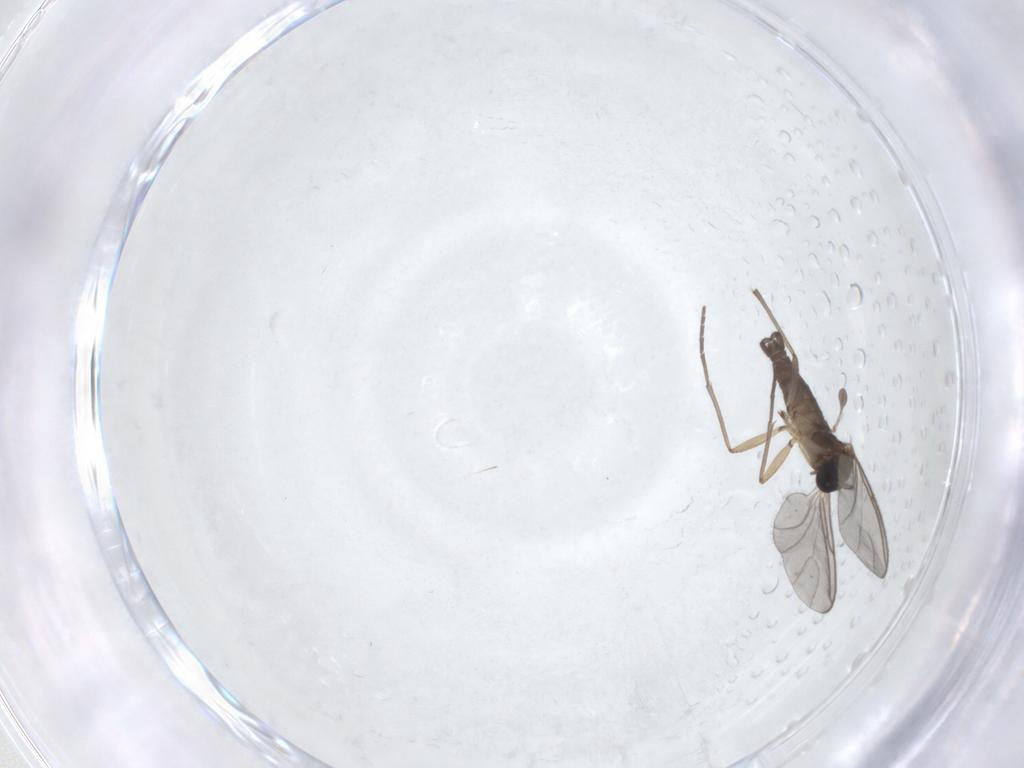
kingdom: Animalia
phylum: Arthropoda
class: Insecta
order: Diptera
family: Sciaridae
